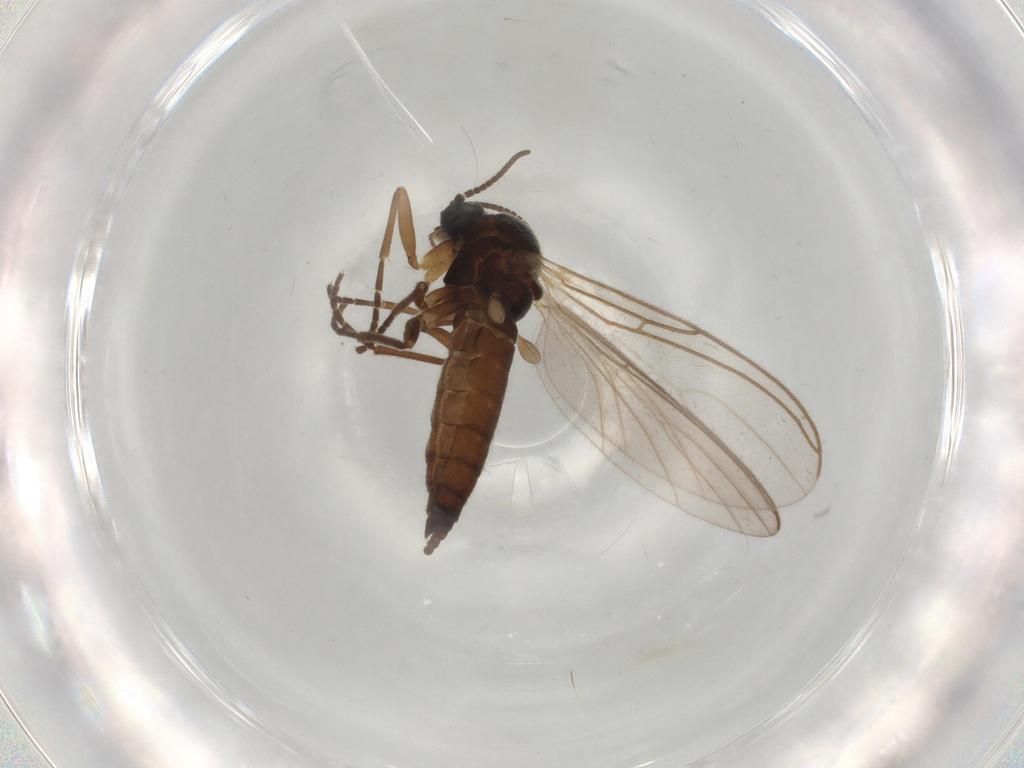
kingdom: Animalia
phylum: Arthropoda
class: Insecta
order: Diptera
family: Sciaridae
